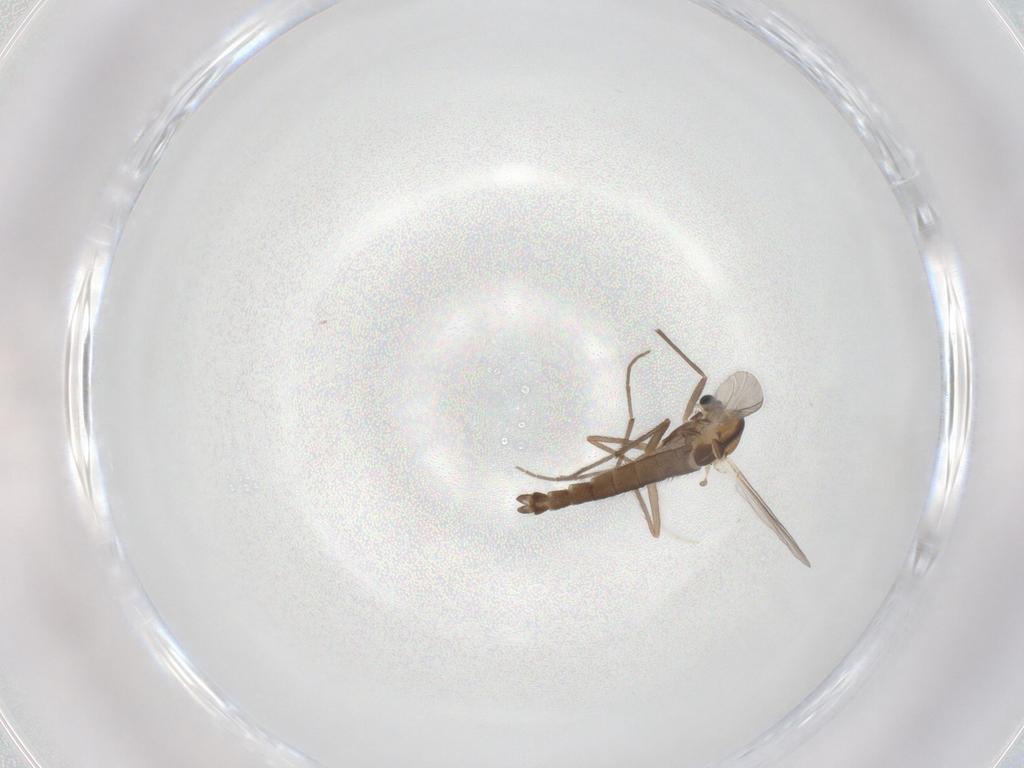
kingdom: Animalia
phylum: Arthropoda
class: Insecta
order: Diptera
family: Chironomidae
